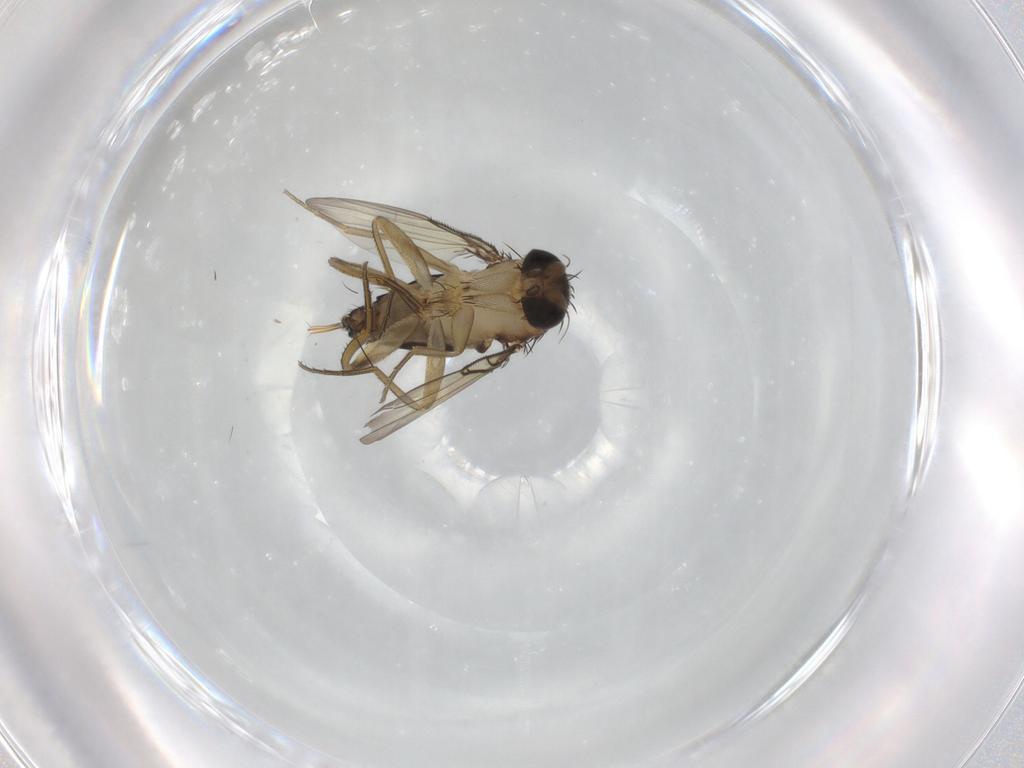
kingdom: Animalia
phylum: Arthropoda
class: Insecta
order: Diptera
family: Phoridae
